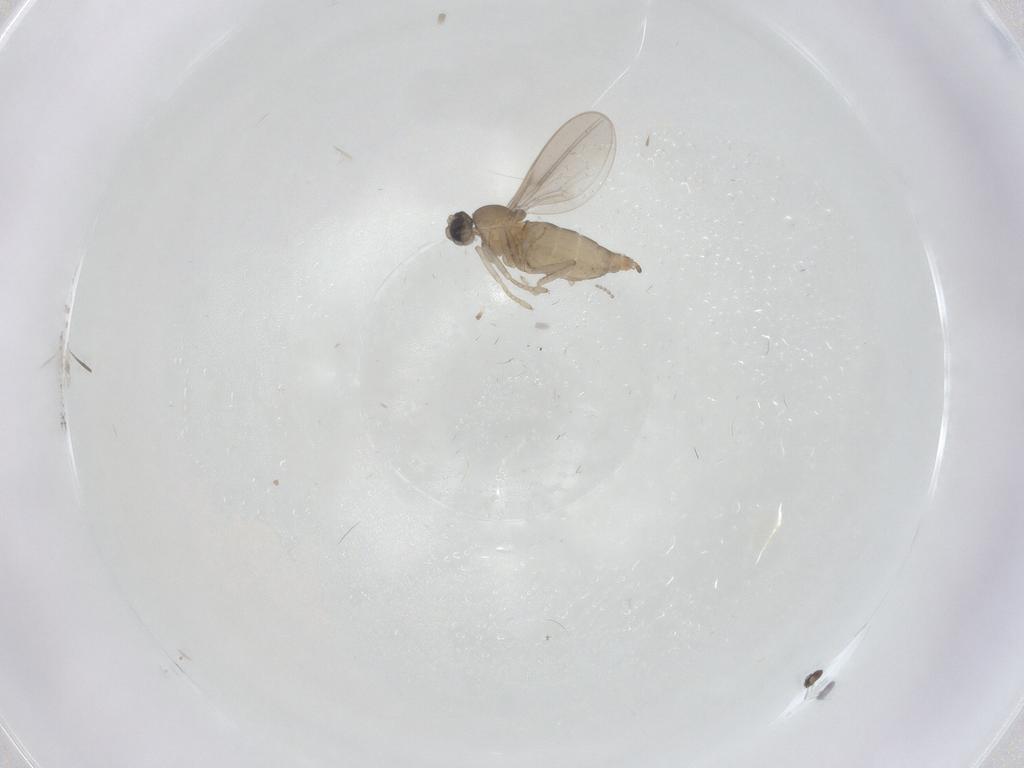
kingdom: Animalia
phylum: Arthropoda
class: Insecta
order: Diptera
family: Cecidomyiidae
